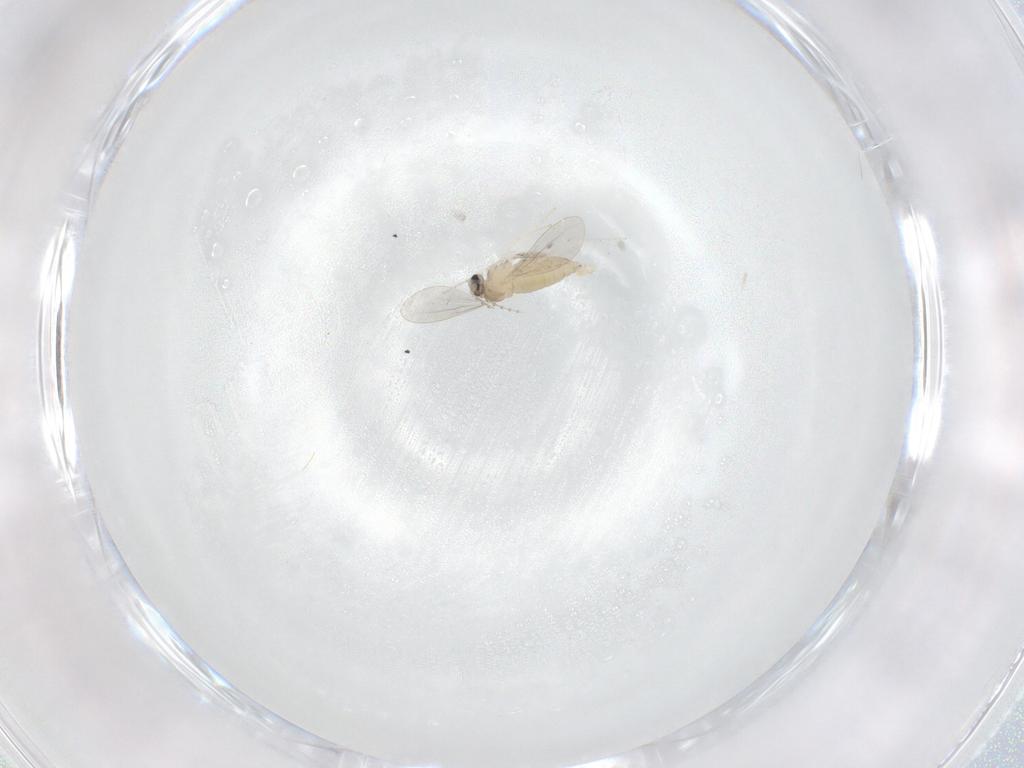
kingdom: Animalia
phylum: Arthropoda
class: Insecta
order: Diptera
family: Cecidomyiidae
